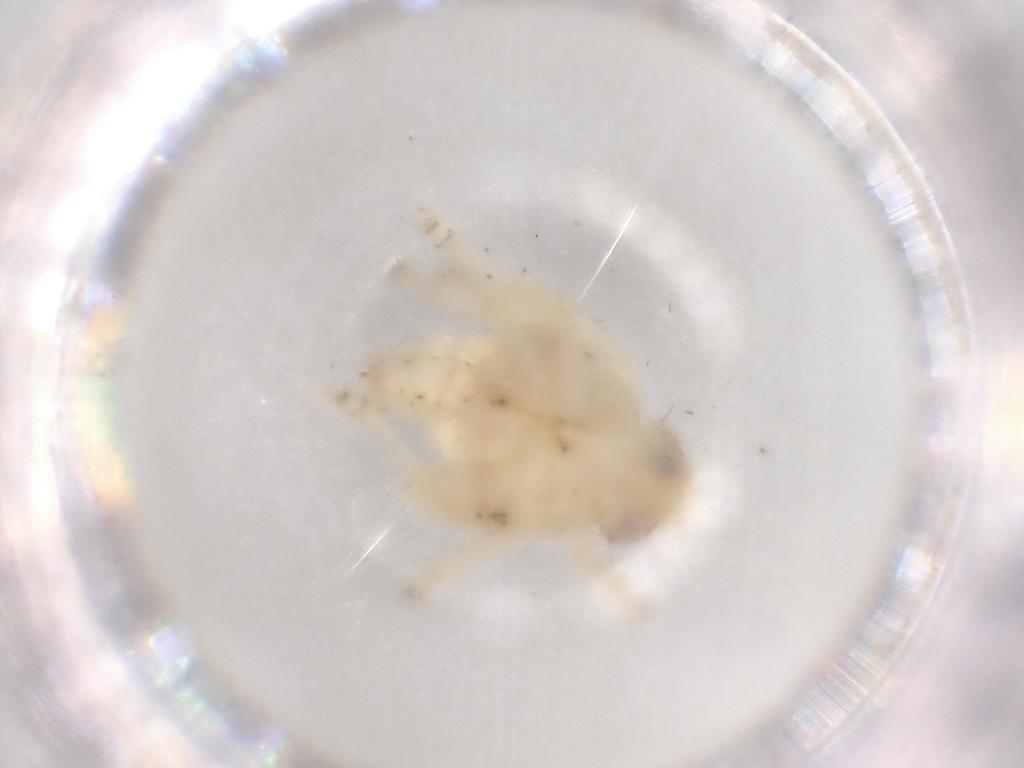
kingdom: Animalia
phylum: Arthropoda
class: Insecta
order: Diptera
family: Pipunculidae
